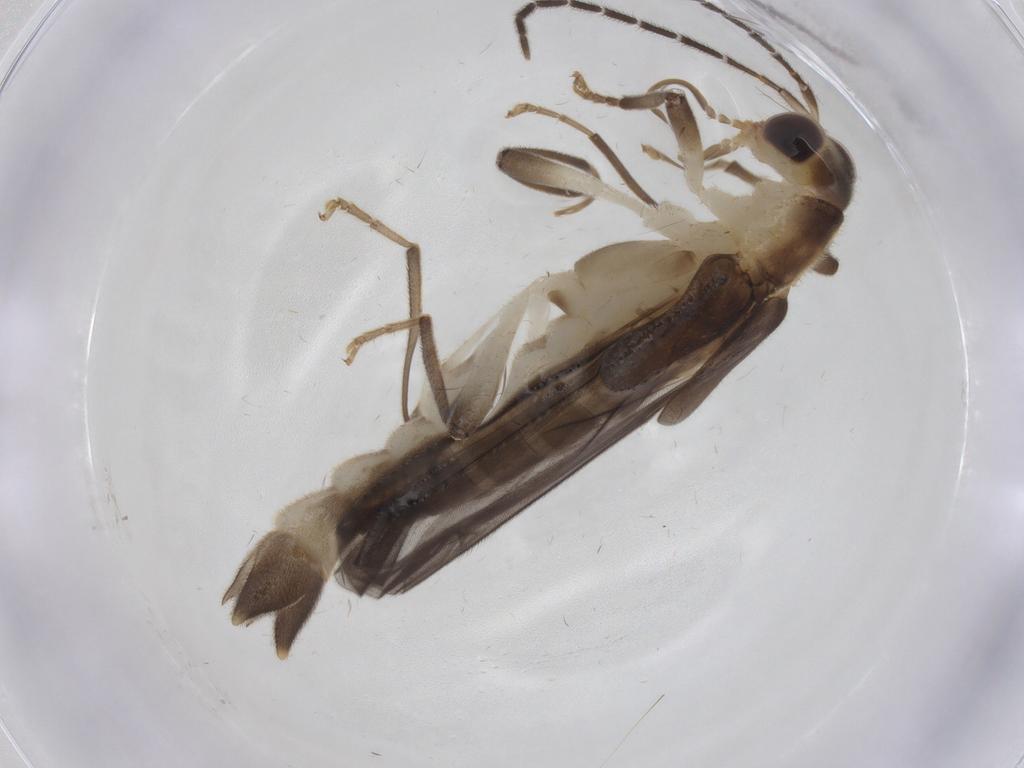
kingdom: Animalia
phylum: Arthropoda
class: Insecta
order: Coleoptera
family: Cantharidae
